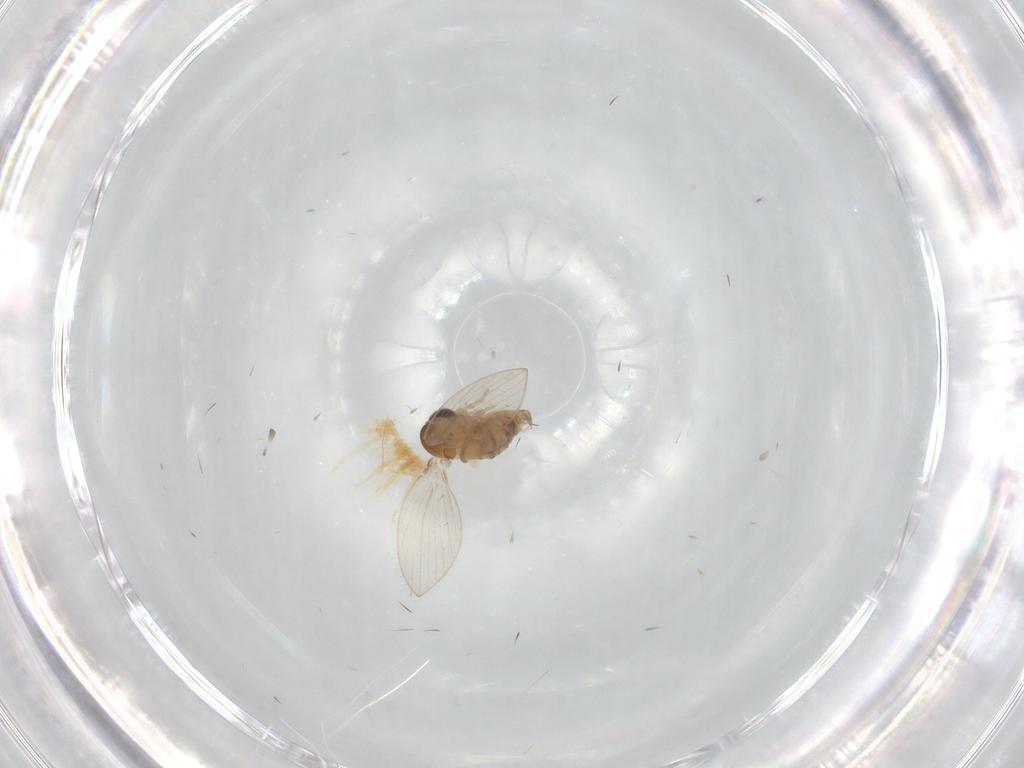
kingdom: Animalia
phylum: Arthropoda
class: Insecta
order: Diptera
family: Psychodidae
